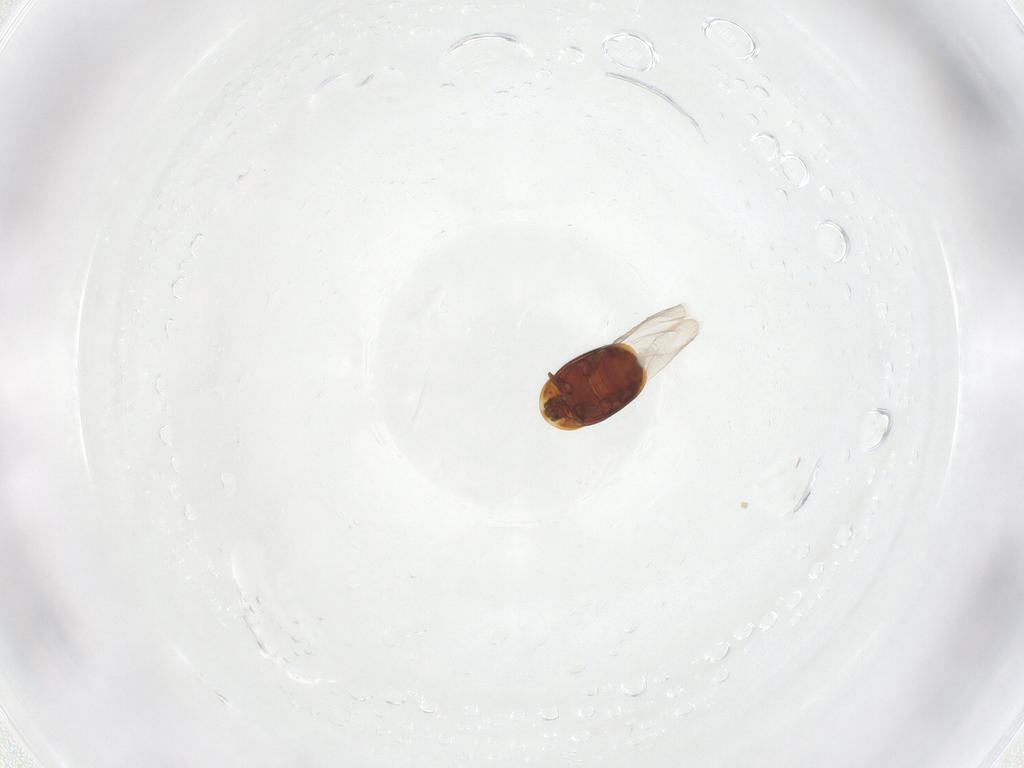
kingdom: Animalia
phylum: Arthropoda
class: Insecta
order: Coleoptera
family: Corylophidae
